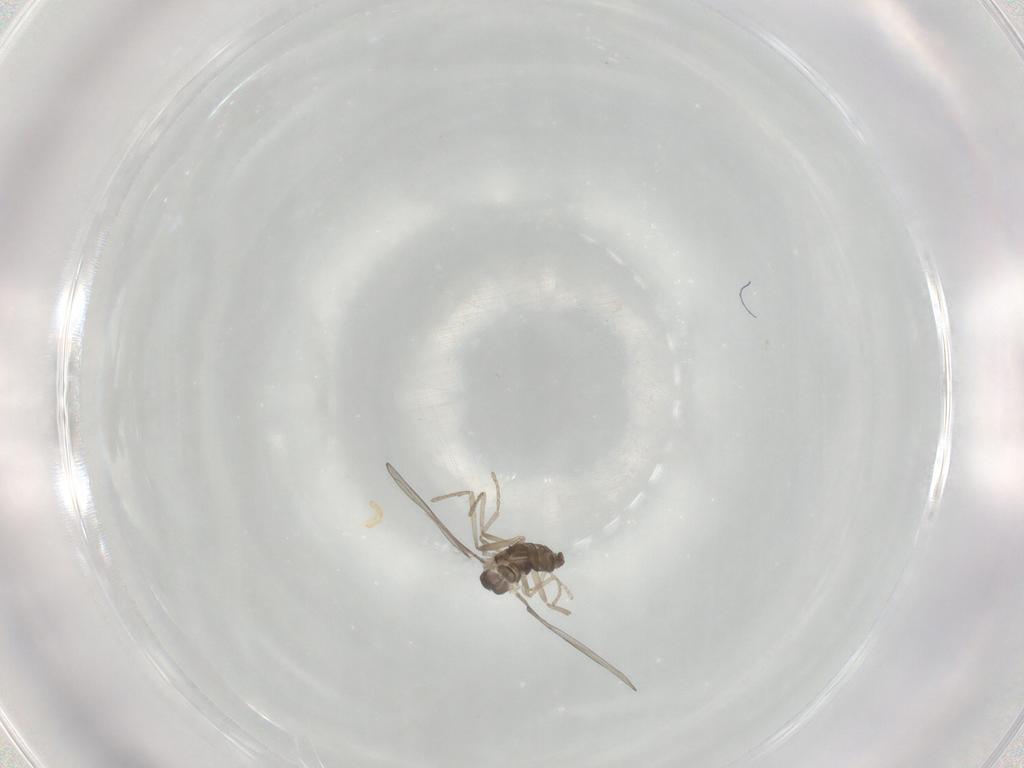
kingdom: Animalia
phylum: Arthropoda
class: Insecta
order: Diptera
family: Cecidomyiidae
